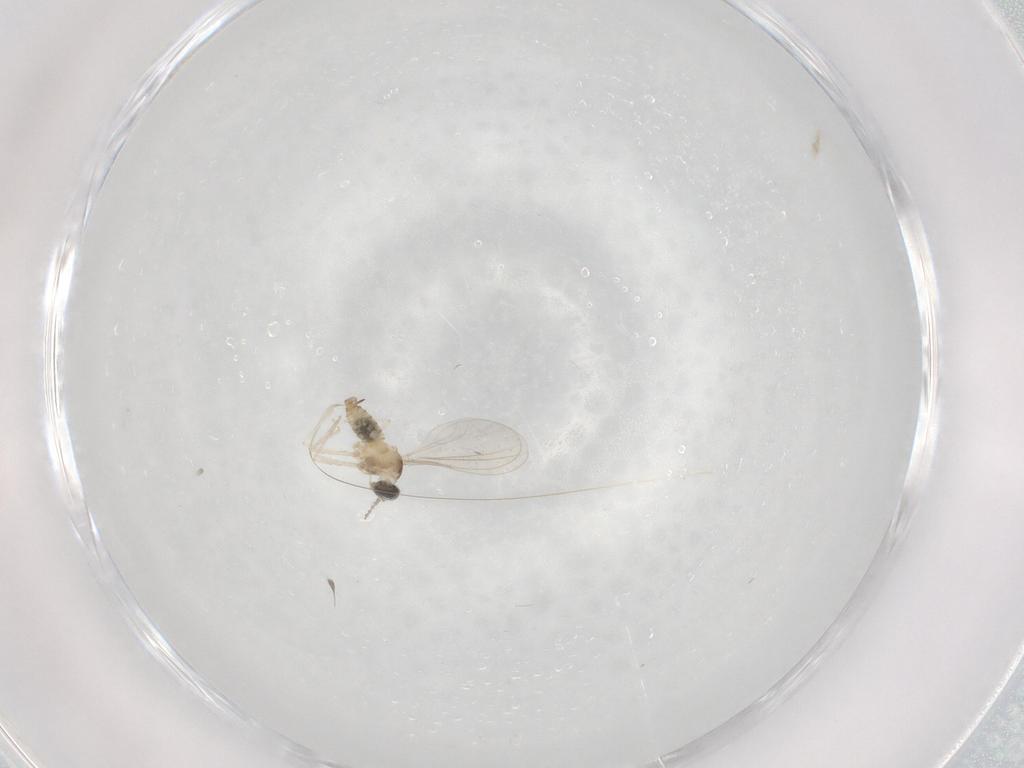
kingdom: Animalia
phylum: Arthropoda
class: Insecta
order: Diptera
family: Cecidomyiidae
